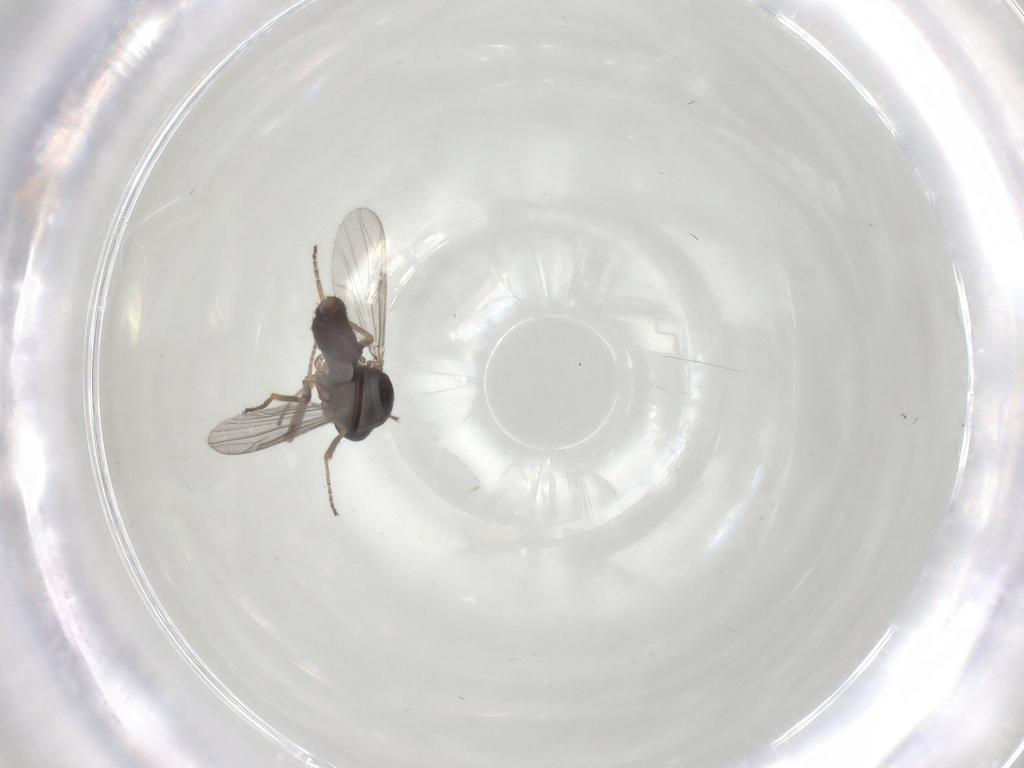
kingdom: Animalia
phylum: Arthropoda
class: Insecta
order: Diptera
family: Ceratopogonidae
